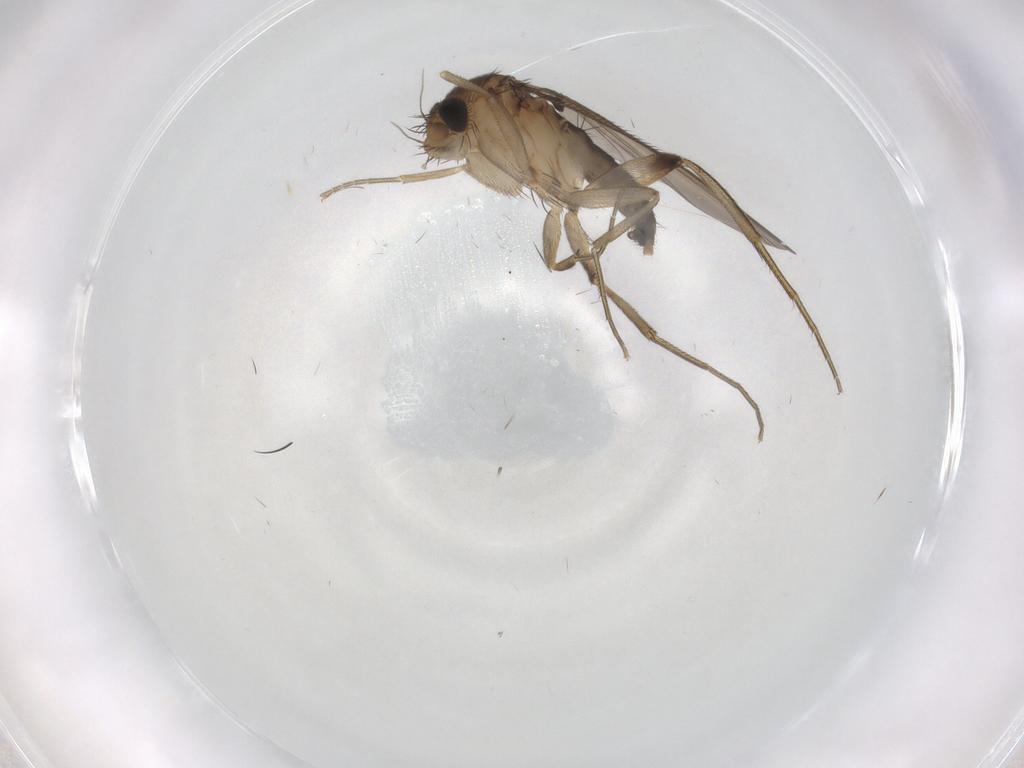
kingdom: Animalia
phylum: Arthropoda
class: Insecta
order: Diptera
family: Phoridae
